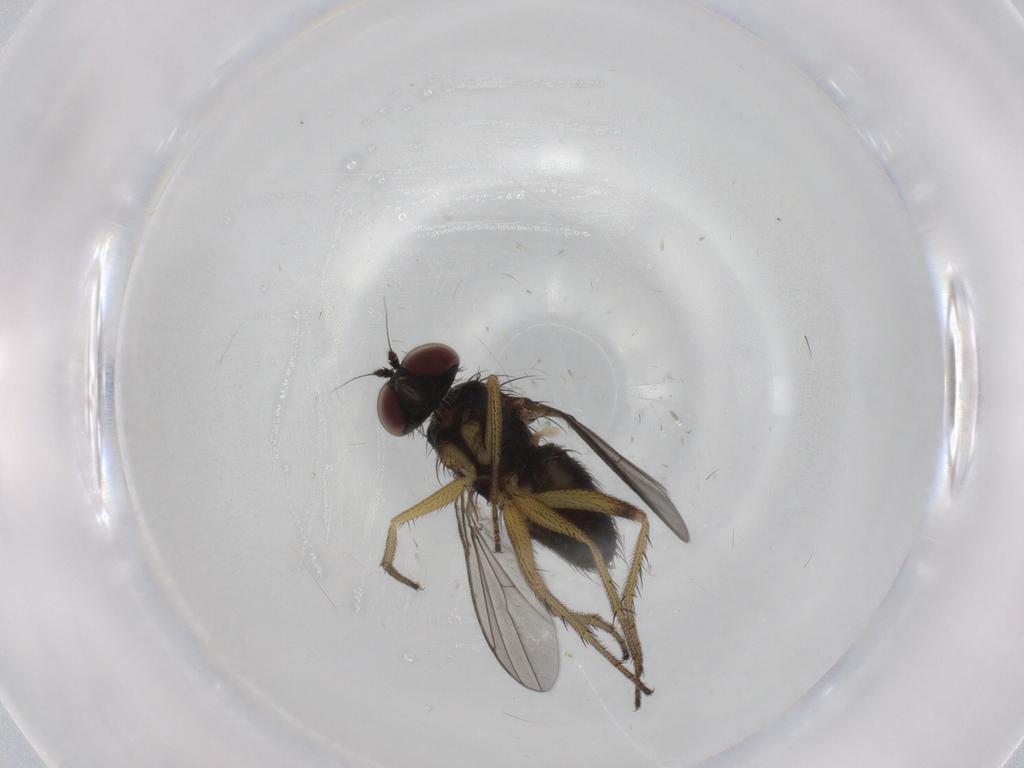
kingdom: Animalia
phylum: Arthropoda
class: Insecta
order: Diptera
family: Dolichopodidae
